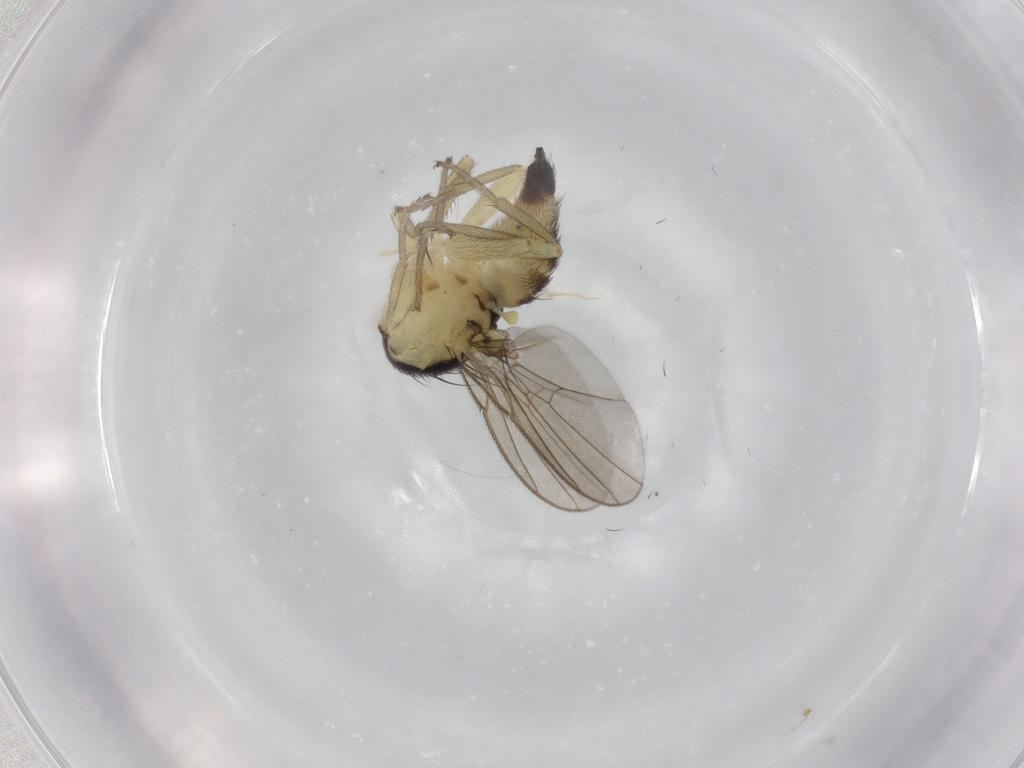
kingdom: Animalia
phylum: Arthropoda
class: Insecta
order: Diptera
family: Agromyzidae
